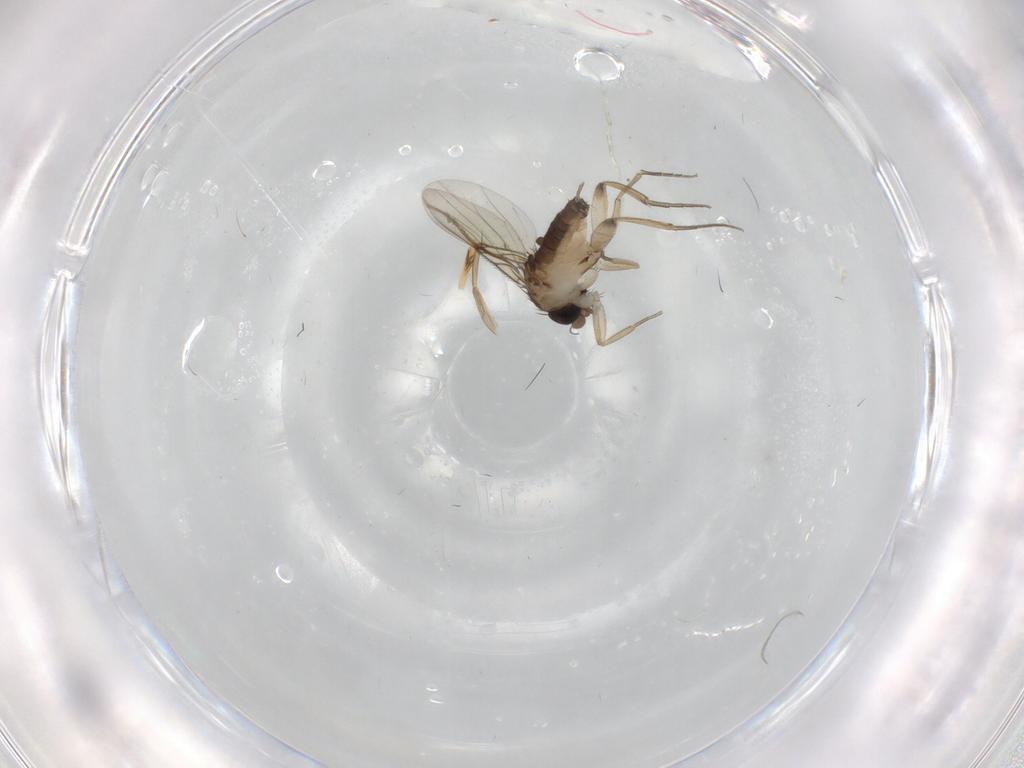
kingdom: Animalia
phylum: Arthropoda
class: Insecta
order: Diptera
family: Phoridae
